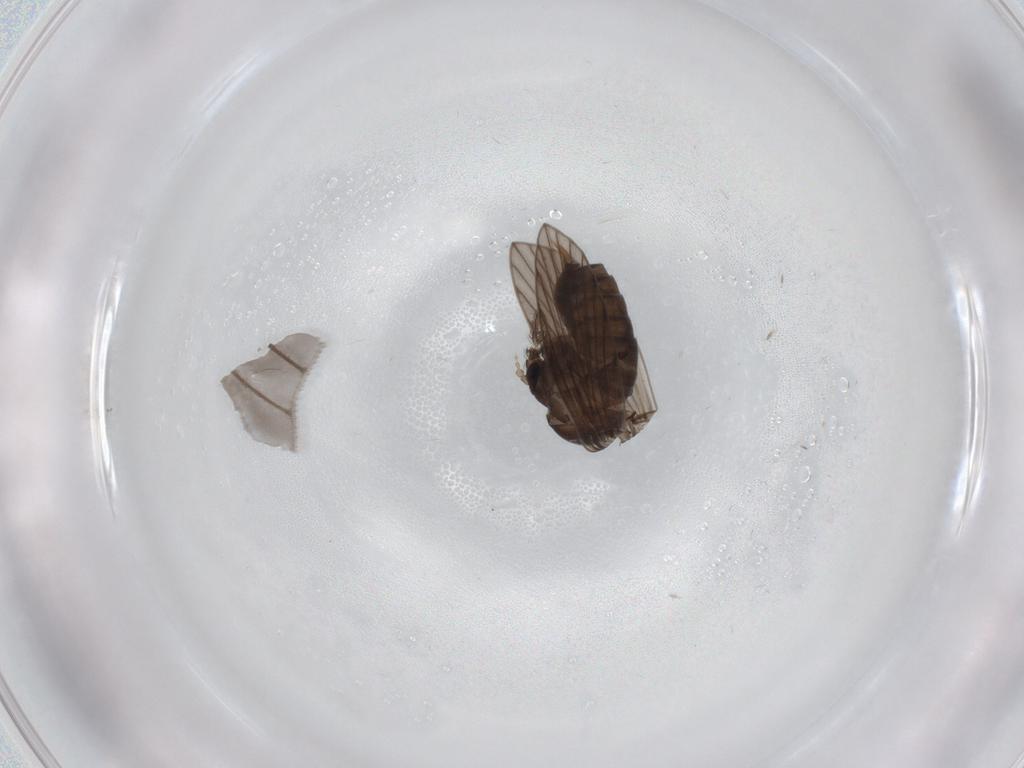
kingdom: Animalia
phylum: Arthropoda
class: Insecta
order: Diptera
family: Psychodidae
